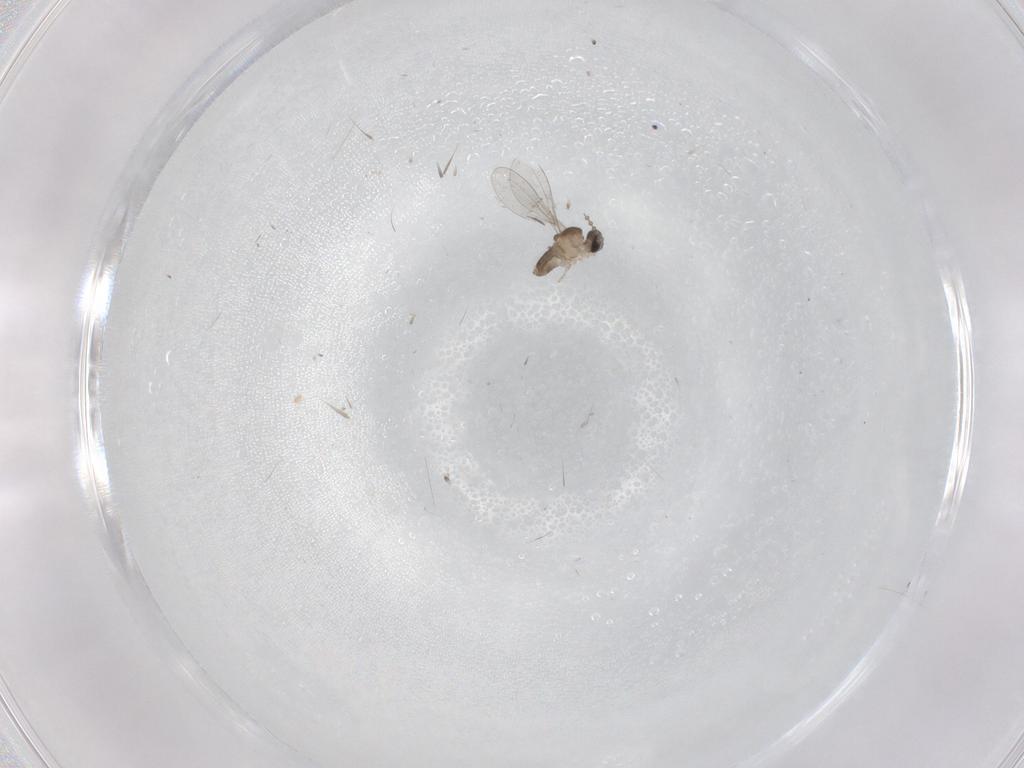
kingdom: Animalia
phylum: Arthropoda
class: Insecta
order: Diptera
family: Cecidomyiidae
